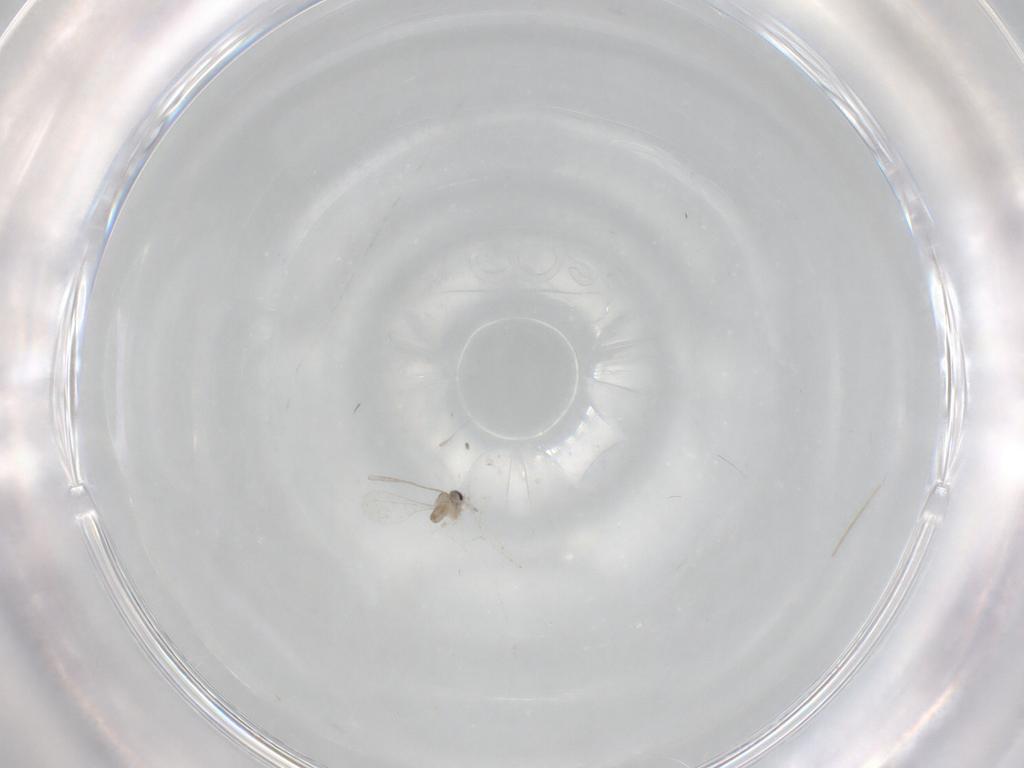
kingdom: Animalia
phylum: Arthropoda
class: Insecta
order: Diptera
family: Cecidomyiidae
